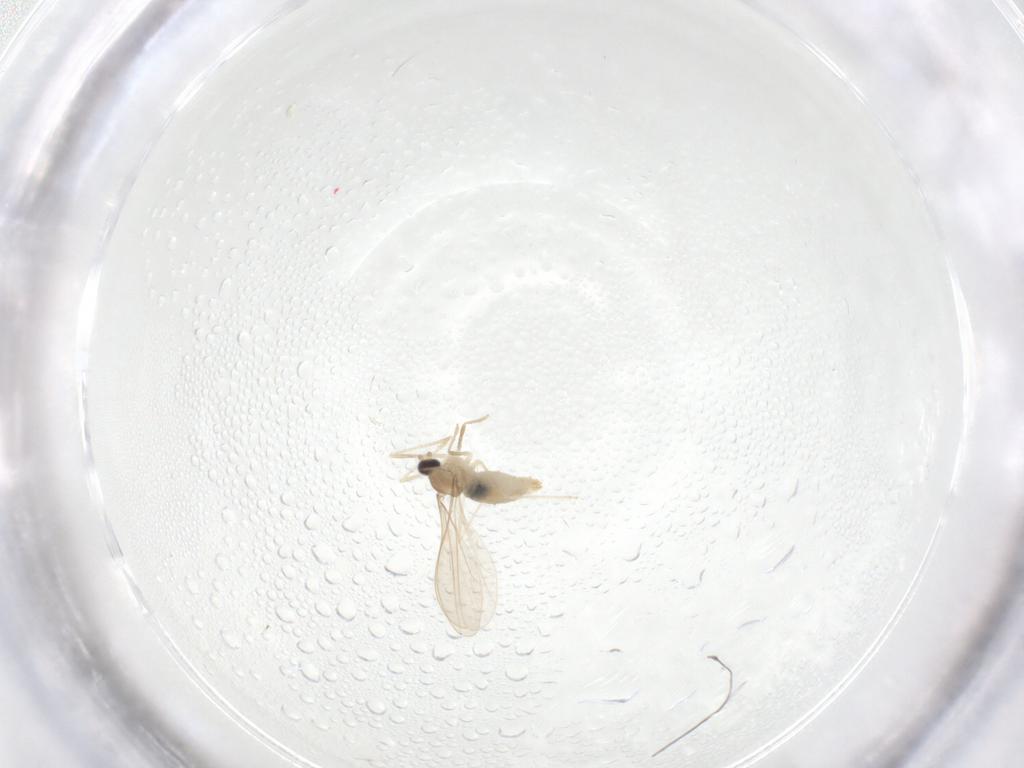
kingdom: Animalia
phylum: Arthropoda
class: Insecta
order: Diptera
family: Cecidomyiidae
